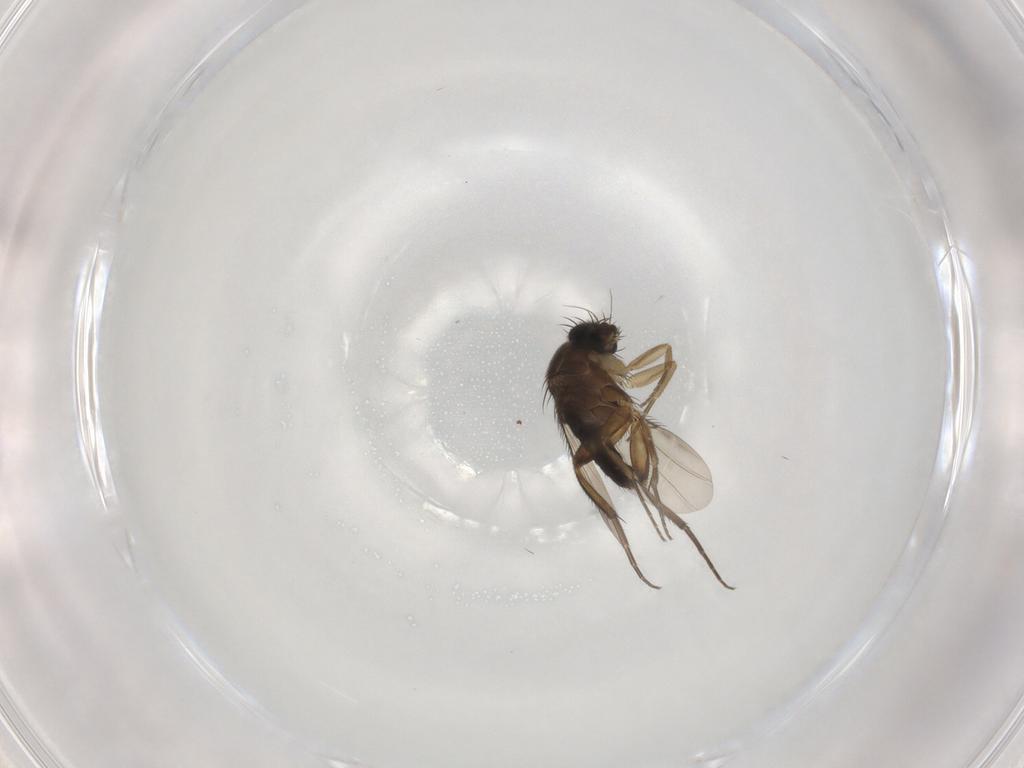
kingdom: Animalia
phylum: Arthropoda
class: Insecta
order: Diptera
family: Phoridae
